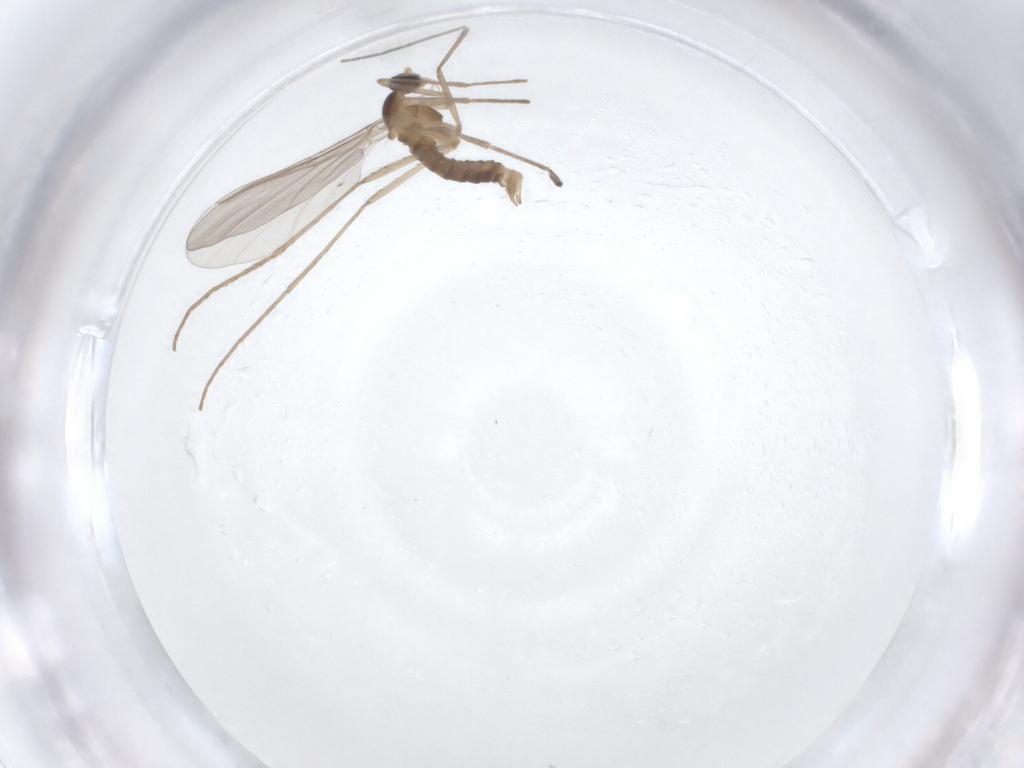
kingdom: Animalia
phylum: Arthropoda
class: Insecta
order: Diptera
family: Cecidomyiidae
